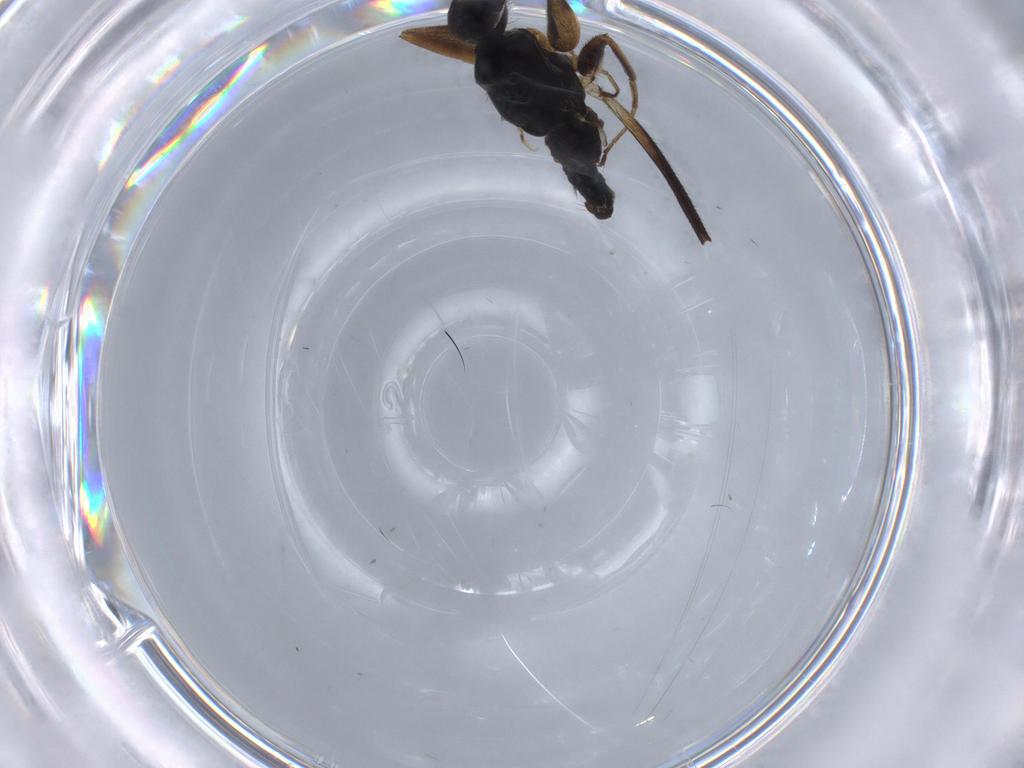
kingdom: Animalia
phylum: Arthropoda
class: Insecta
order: Diptera
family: Hybotidae
